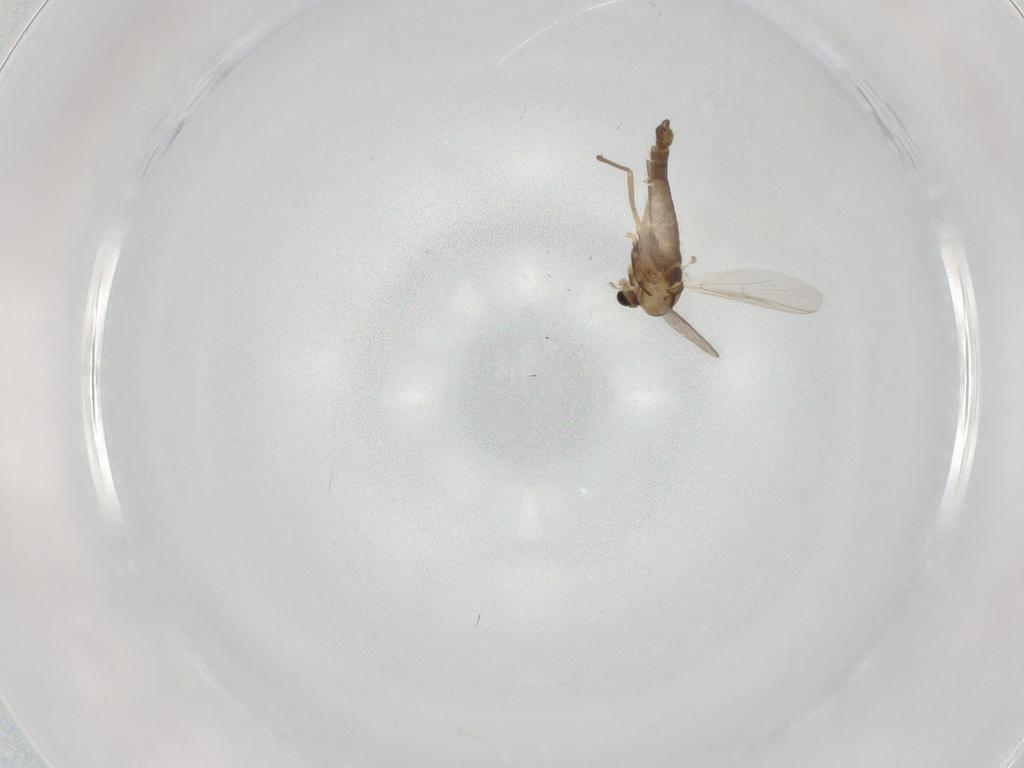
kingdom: Animalia
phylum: Arthropoda
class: Insecta
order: Diptera
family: Chironomidae
